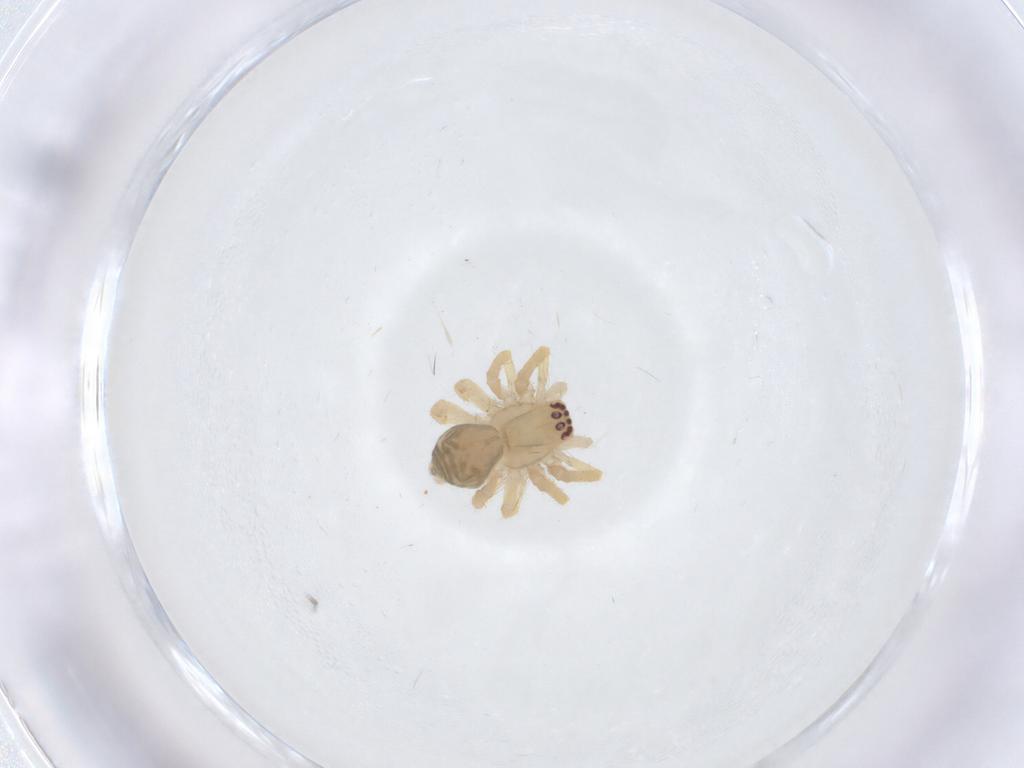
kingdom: Animalia
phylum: Arthropoda
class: Arachnida
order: Araneae
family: Desidae
